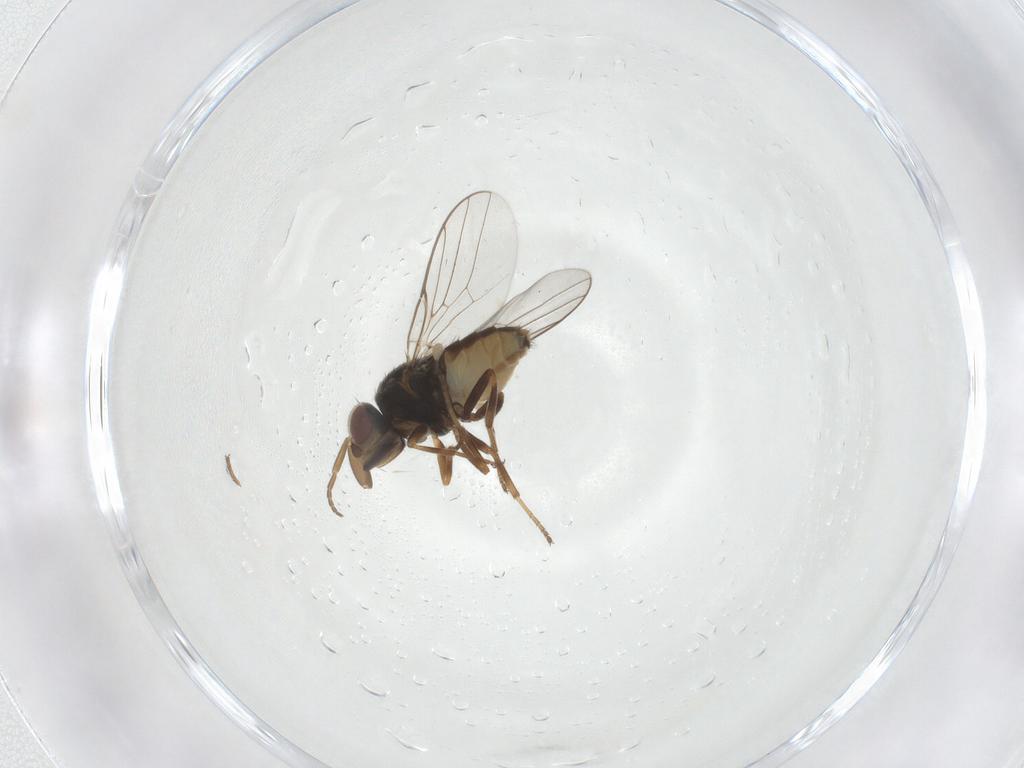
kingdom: Animalia
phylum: Arthropoda
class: Insecta
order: Diptera
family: Chloropidae
